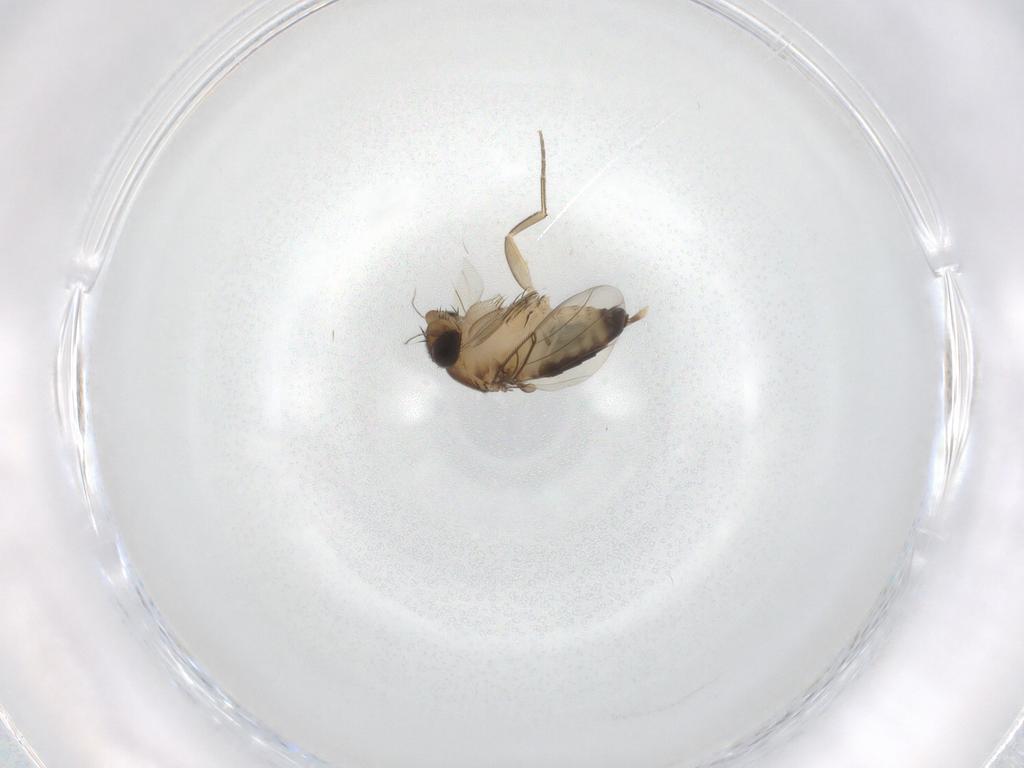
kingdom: Animalia
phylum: Arthropoda
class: Insecta
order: Diptera
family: Phoridae
